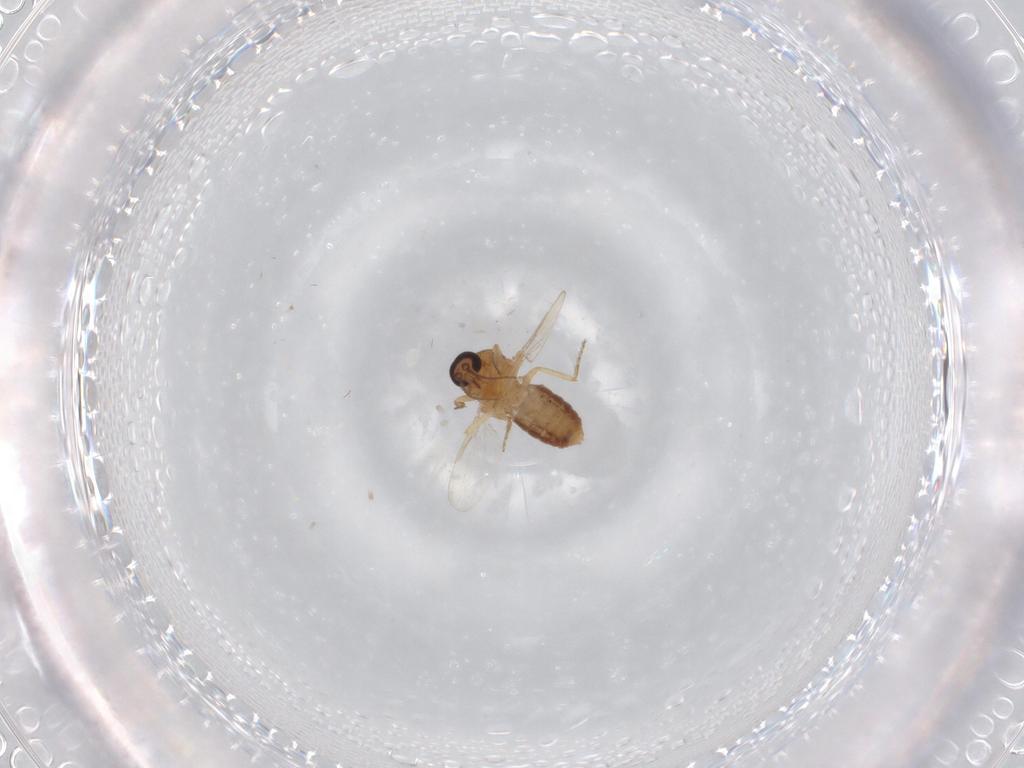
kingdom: Animalia
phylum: Arthropoda
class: Insecta
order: Diptera
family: Ceratopogonidae
